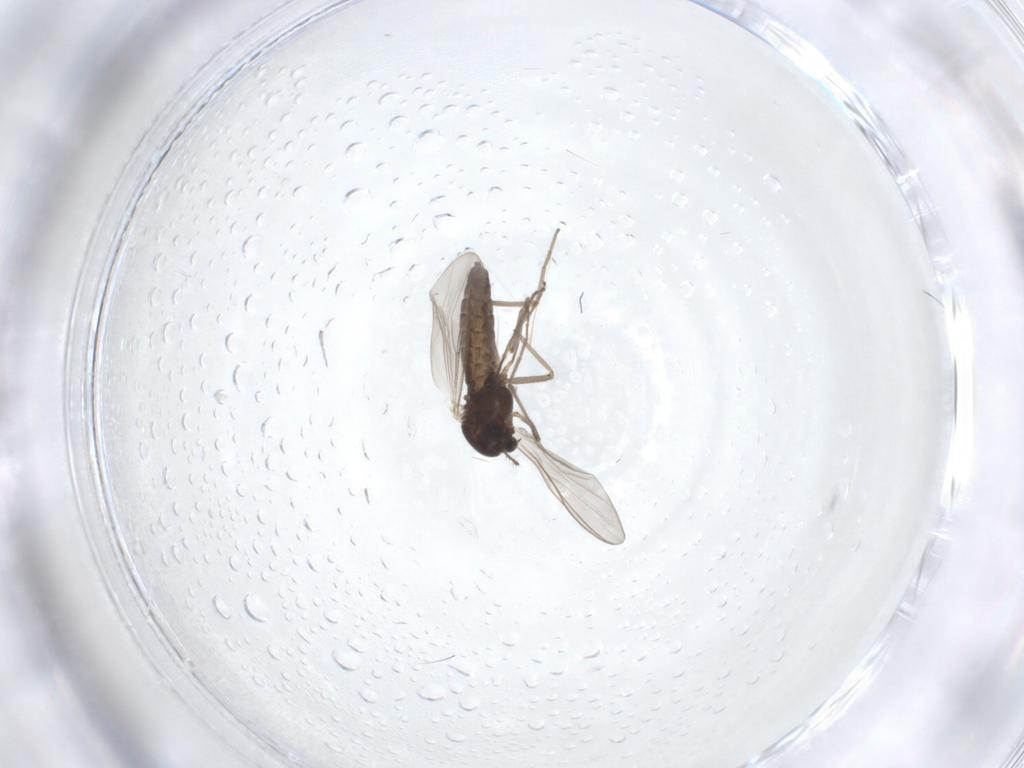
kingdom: Animalia
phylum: Arthropoda
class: Insecta
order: Diptera
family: Chironomidae
